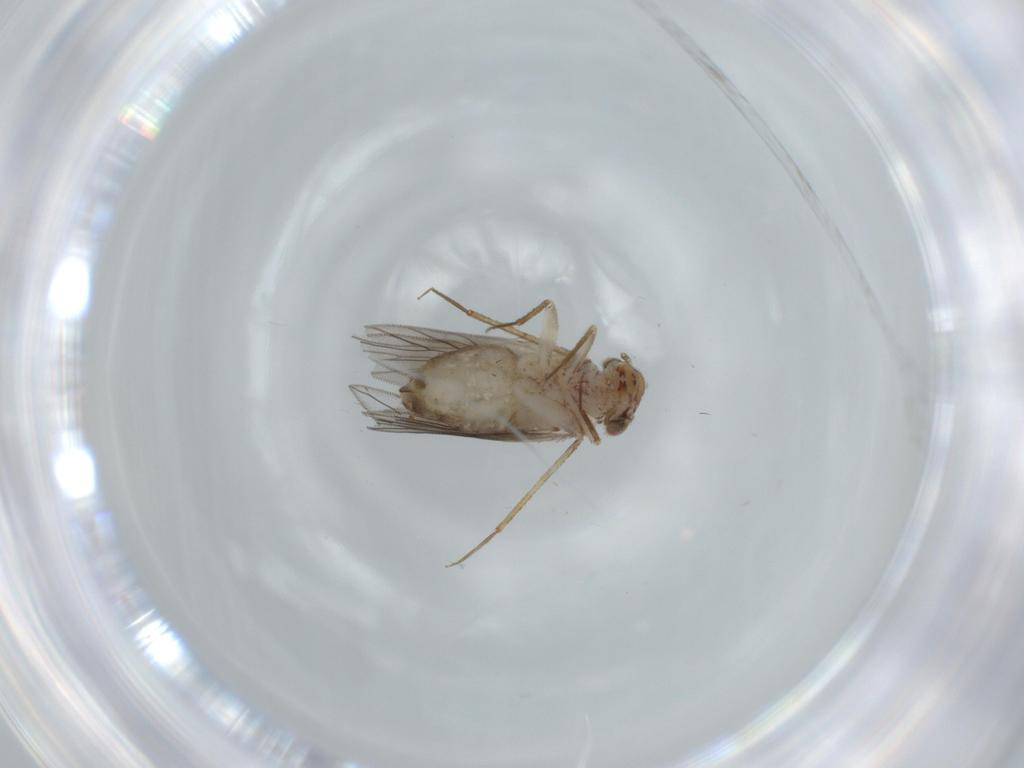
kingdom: Animalia
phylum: Arthropoda
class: Insecta
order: Psocodea
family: Lepidopsocidae
